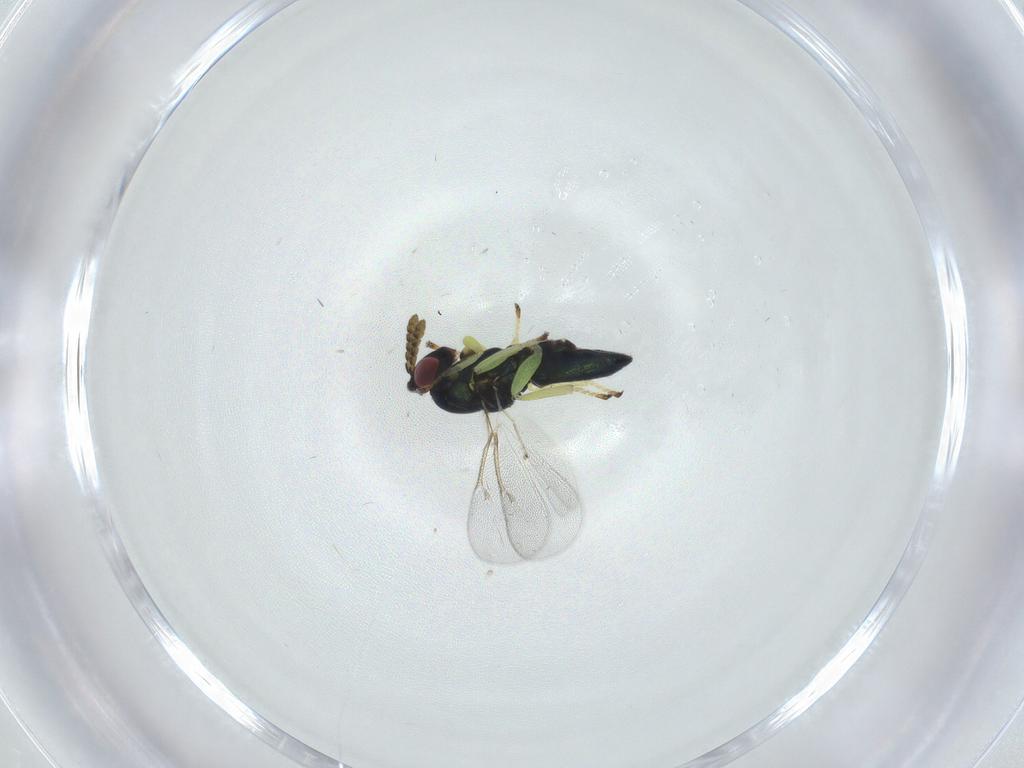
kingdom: Animalia
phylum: Arthropoda
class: Insecta
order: Hymenoptera
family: Eulophidae
